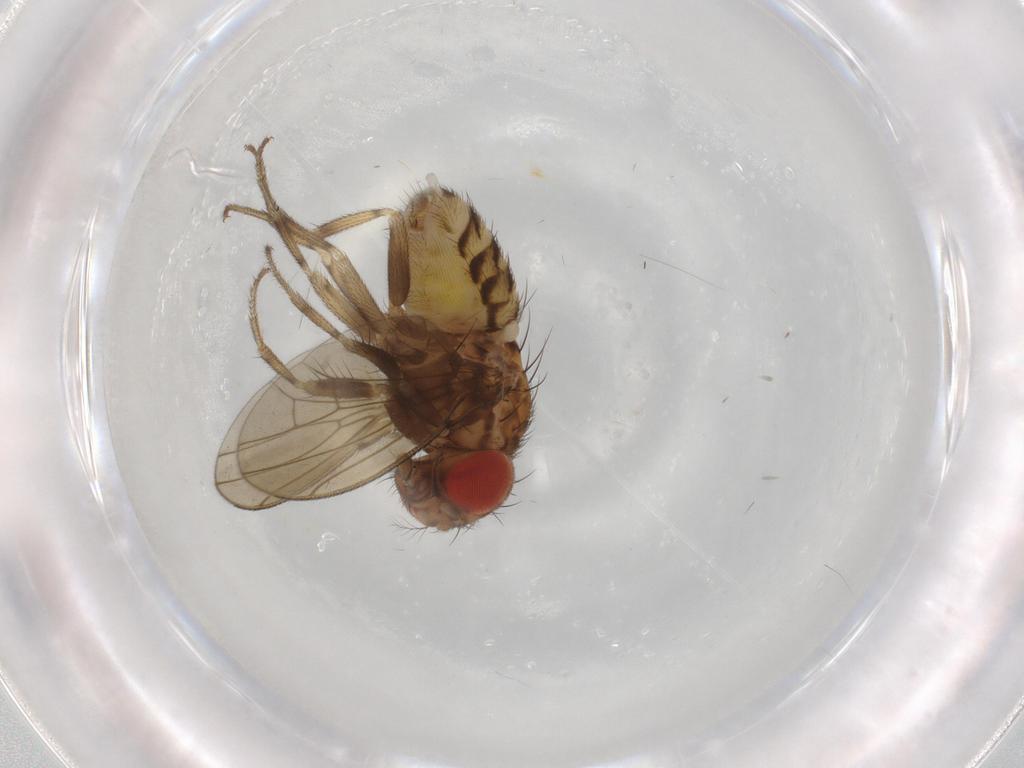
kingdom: Animalia
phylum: Arthropoda
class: Insecta
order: Diptera
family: Drosophilidae
